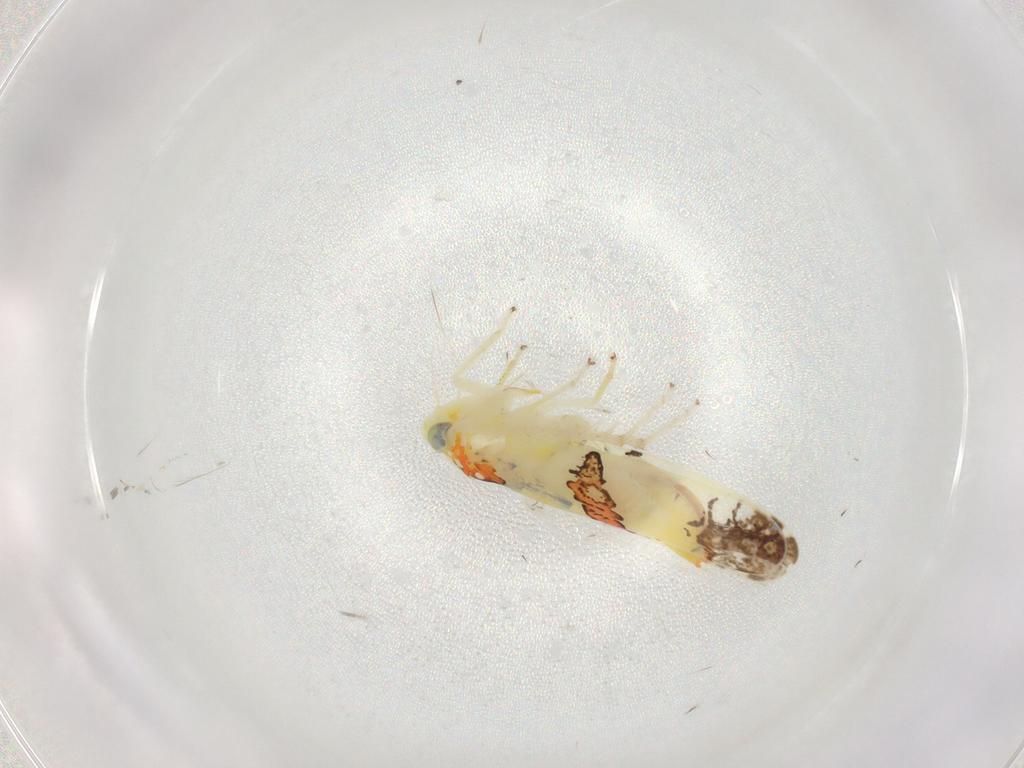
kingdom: Animalia
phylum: Arthropoda
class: Insecta
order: Hemiptera
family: Cicadellidae
